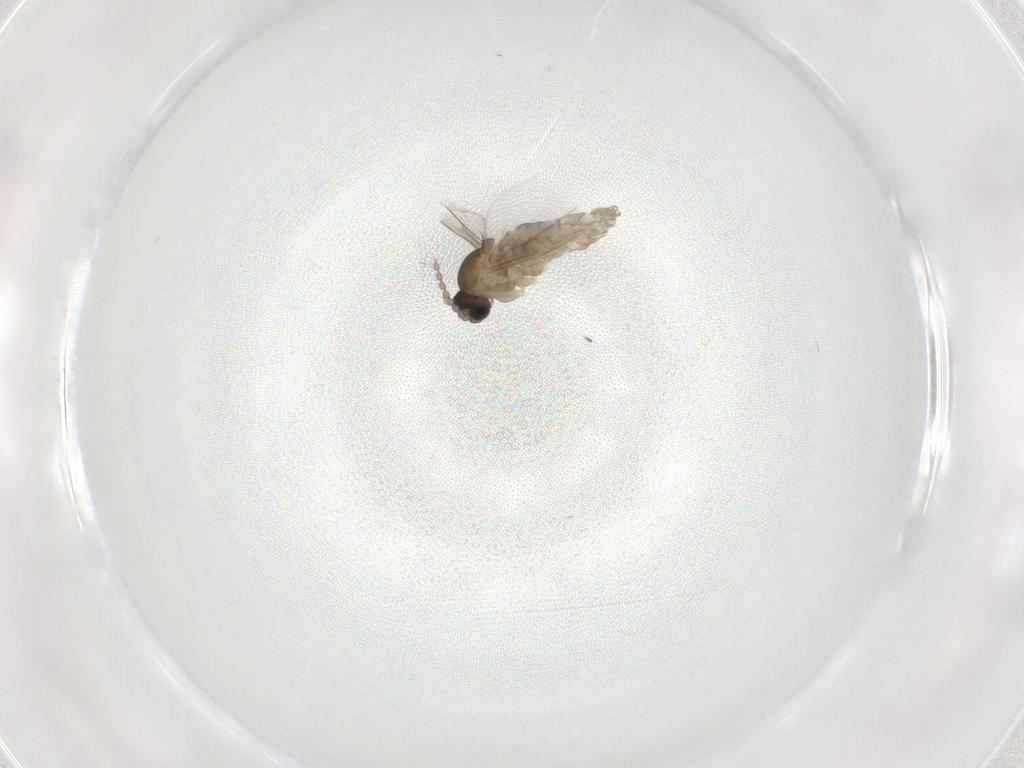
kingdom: Animalia
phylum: Arthropoda
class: Insecta
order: Diptera
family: Cecidomyiidae
